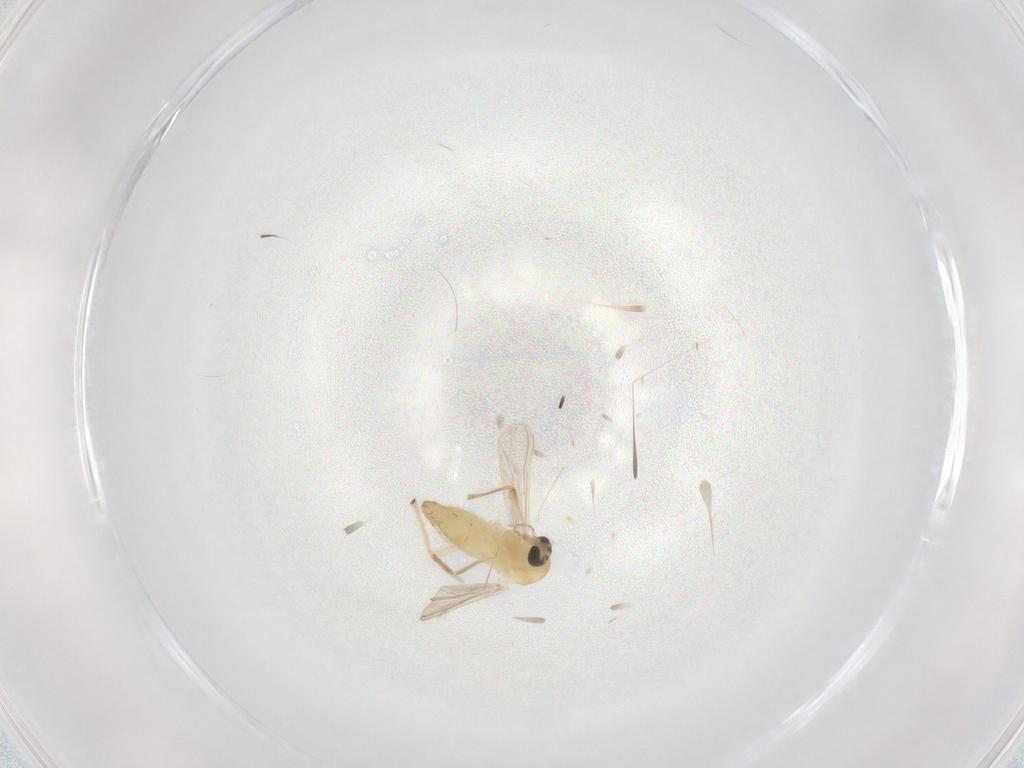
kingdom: Animalia
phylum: Arthropoda
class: Insecta
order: Diptera
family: Chironomidae
